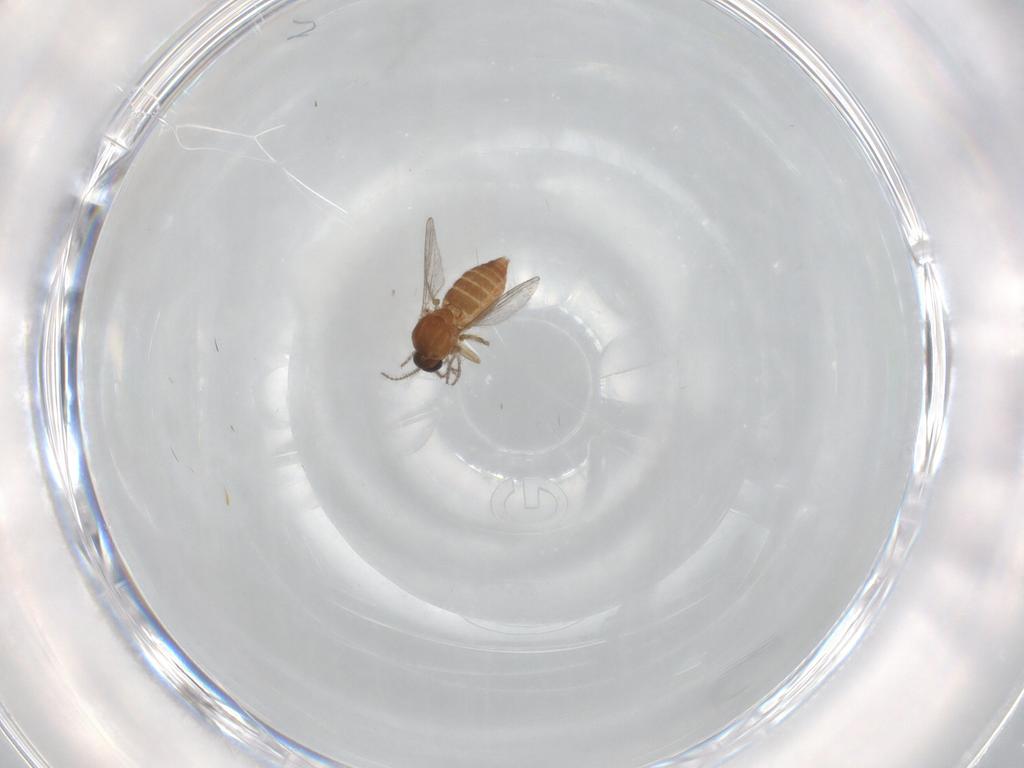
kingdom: Animalia
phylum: Arthropoda
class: Insecta
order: Diptera
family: Ceratopogonidae
